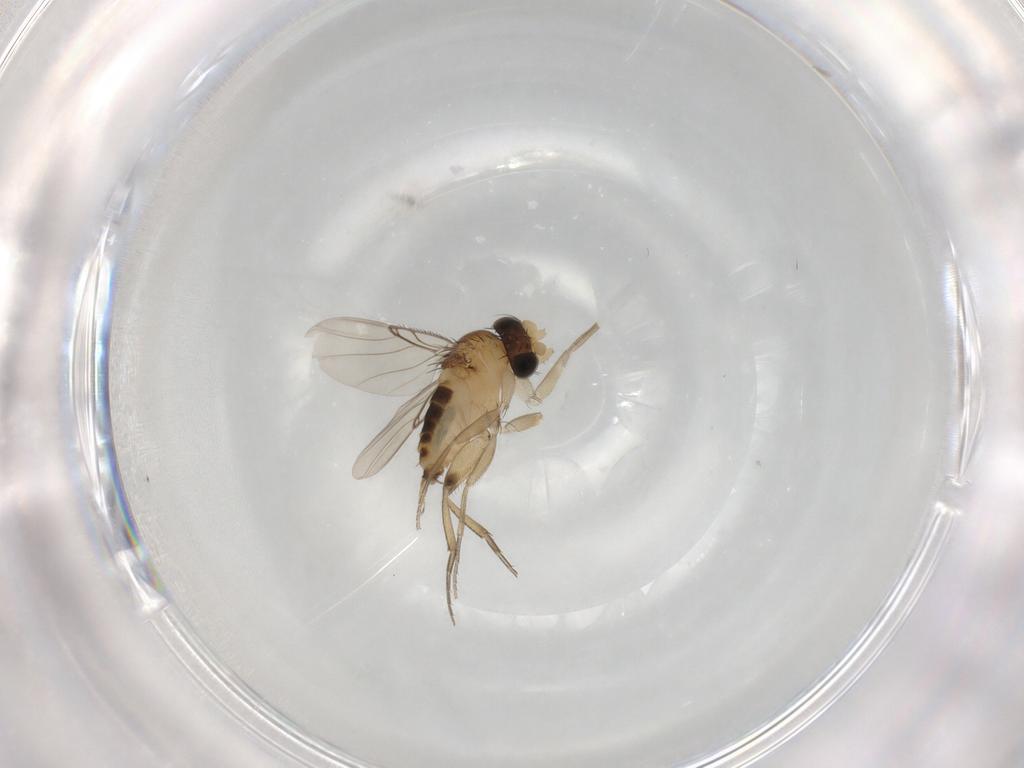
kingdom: Animalia
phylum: Arthropoda
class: Insecta
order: Diptera
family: Phoridae
